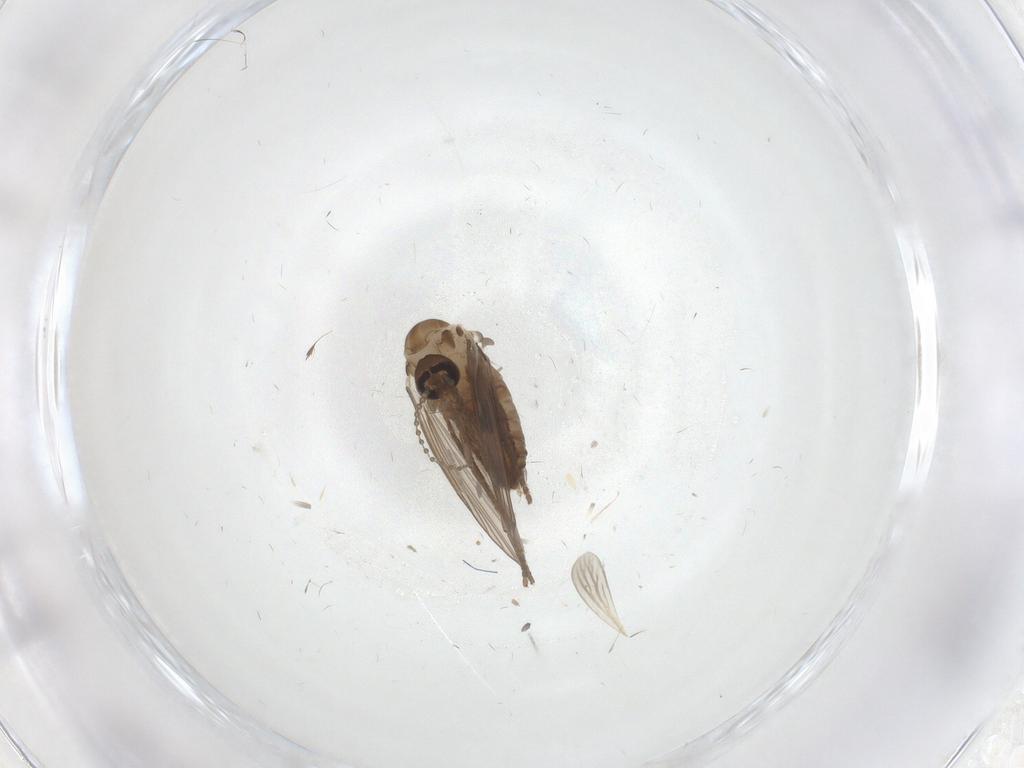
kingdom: Animalia
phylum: Arthropoda
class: Insecta
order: Diptera
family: Psychodidae
